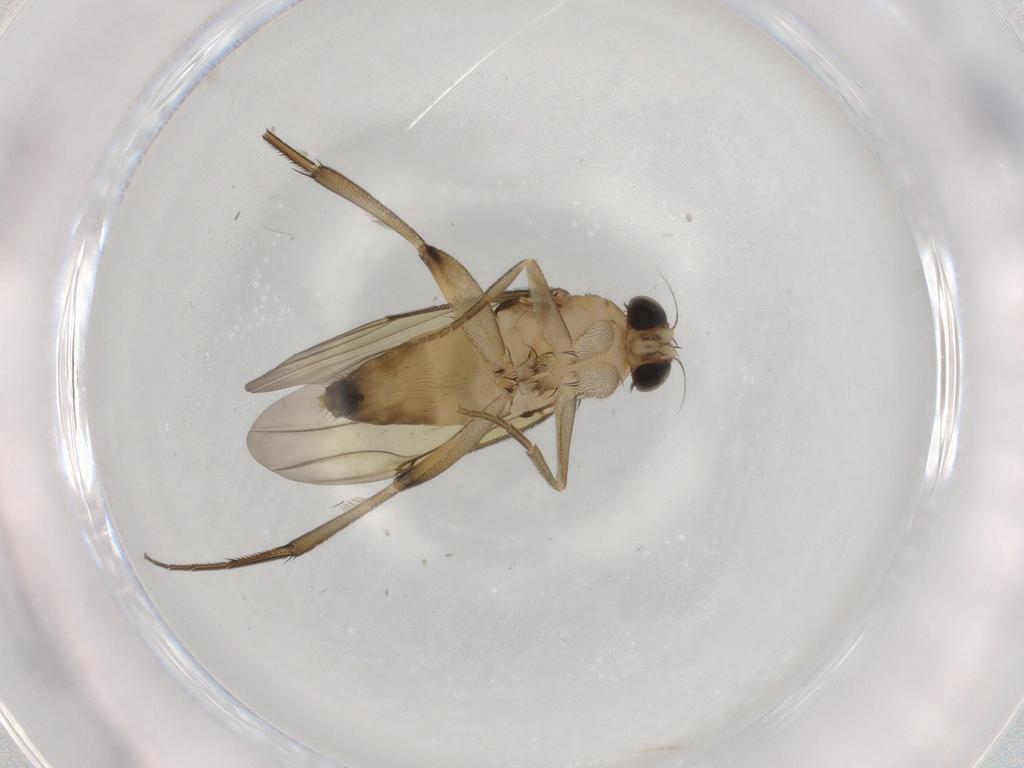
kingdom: Animalia
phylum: Arthropoda
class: Insecta
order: Diptera
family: Phoridae
